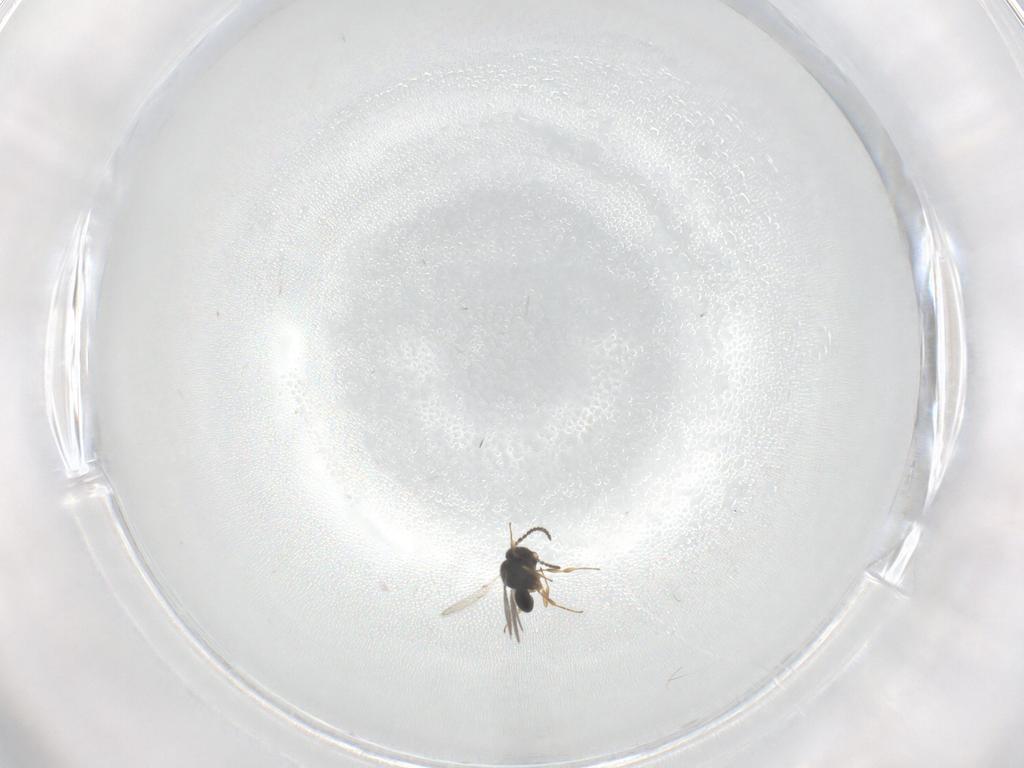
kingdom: Animalia
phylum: Arthropoda
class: Insecta
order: Hymenoptera
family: Scelionidae
